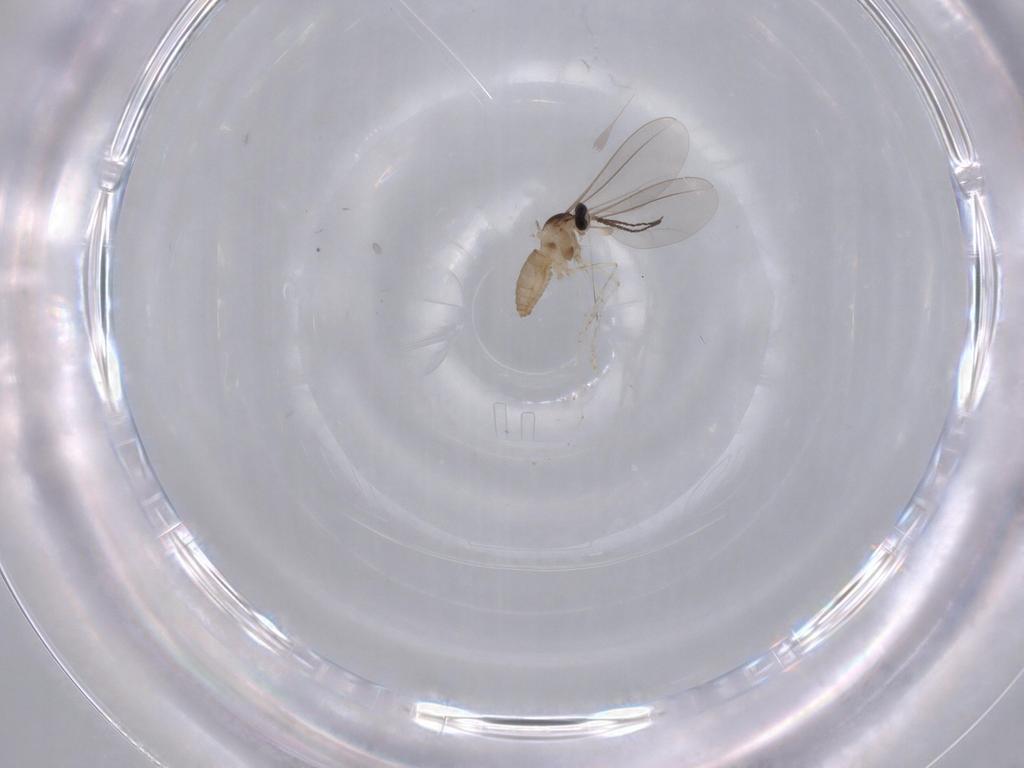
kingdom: Animalia
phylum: Arthropoda
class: Insecta
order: Diptera
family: Cecidomyiidae
